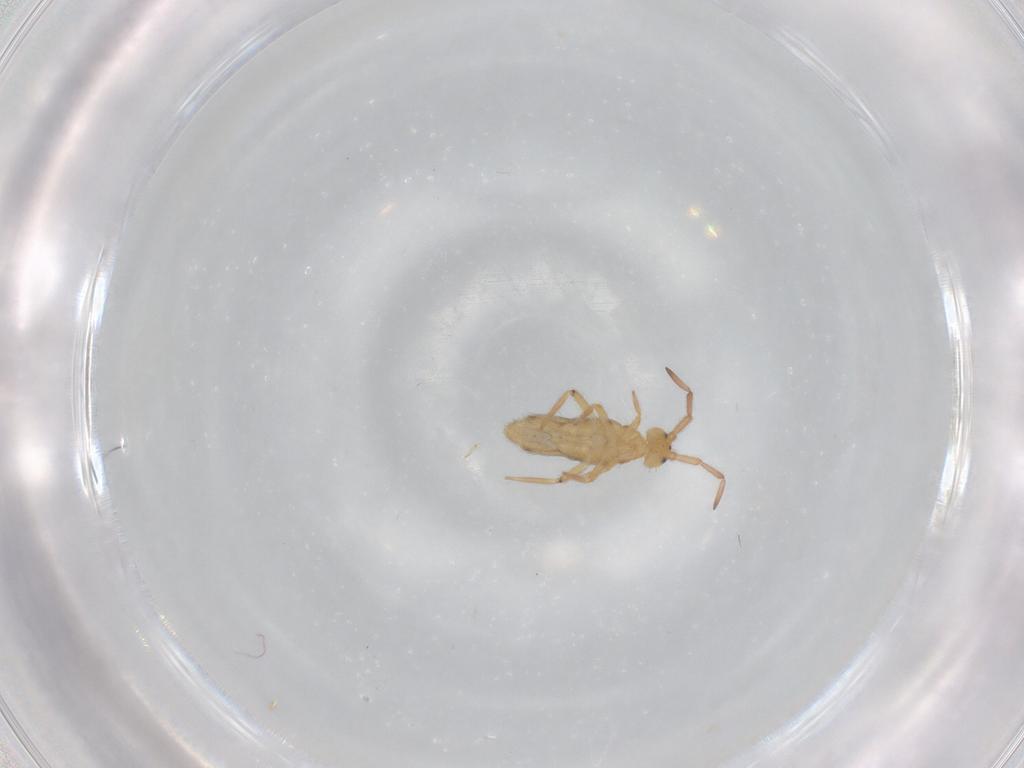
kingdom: Animalia
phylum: Arthropoda
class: Collembola
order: Entomobryomorpha
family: Entomobryidae
